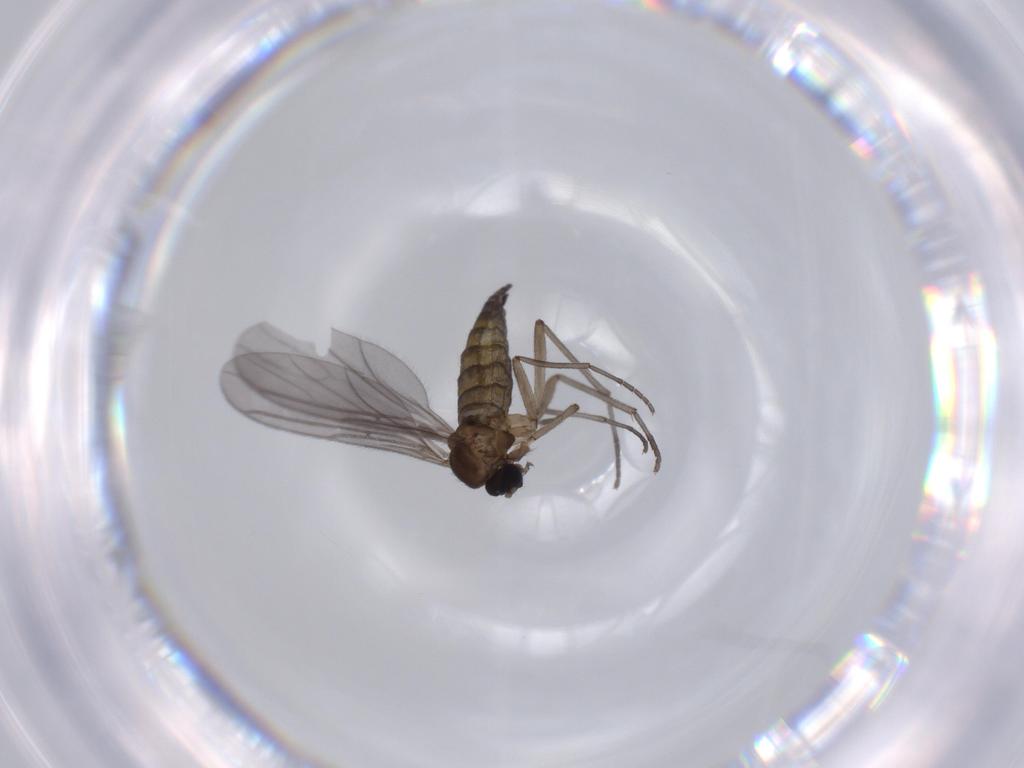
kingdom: Animalia
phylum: Arthropoda
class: Insecta
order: Diptera
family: Sciaridae
